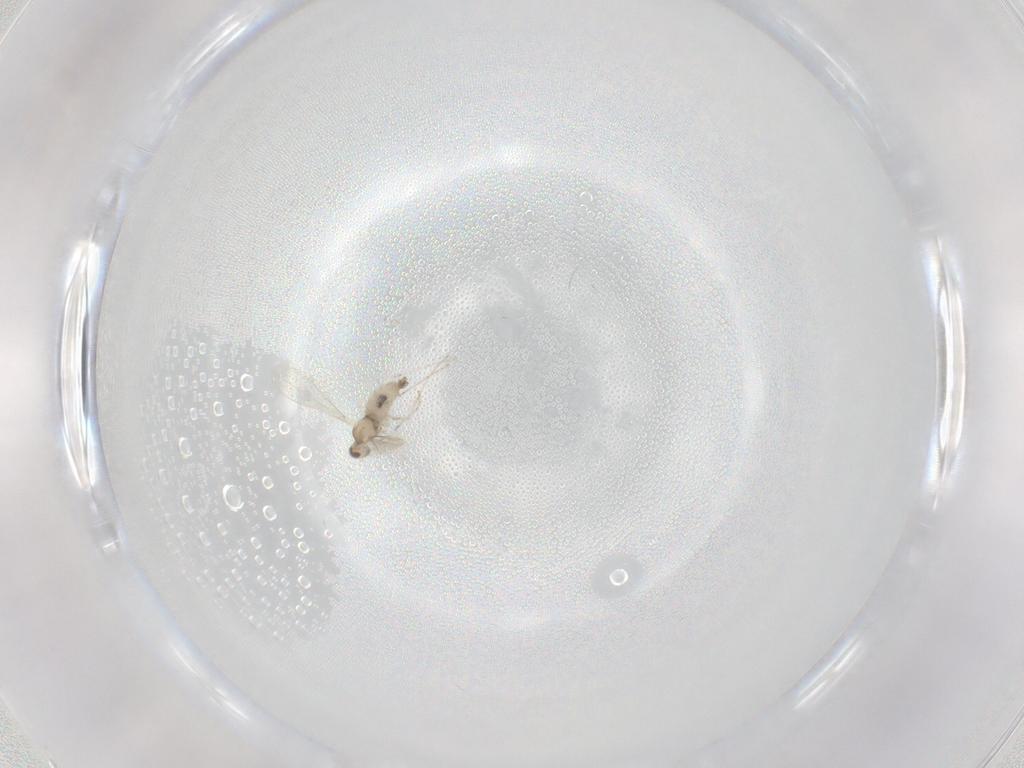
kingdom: Animalia
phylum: Arthropoda
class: Insecta
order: Diptera
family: Cecidomyiidae
